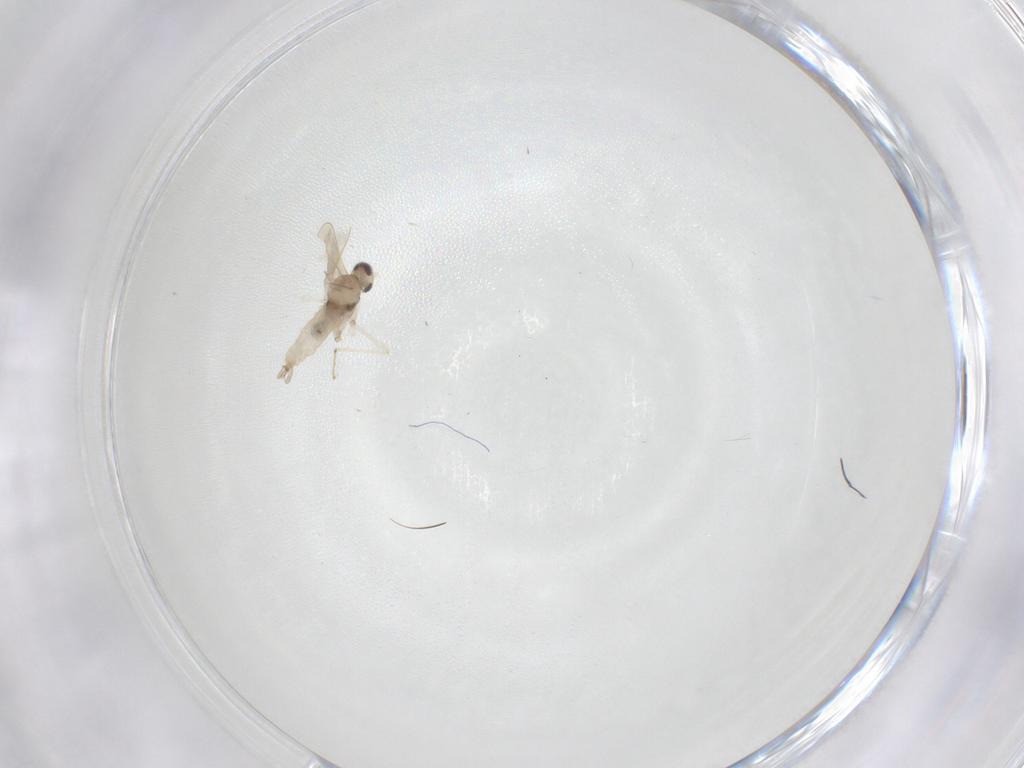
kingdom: Animalia
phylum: Arthropoda
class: Insecta
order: Diptera
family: Cecidomyiidae
